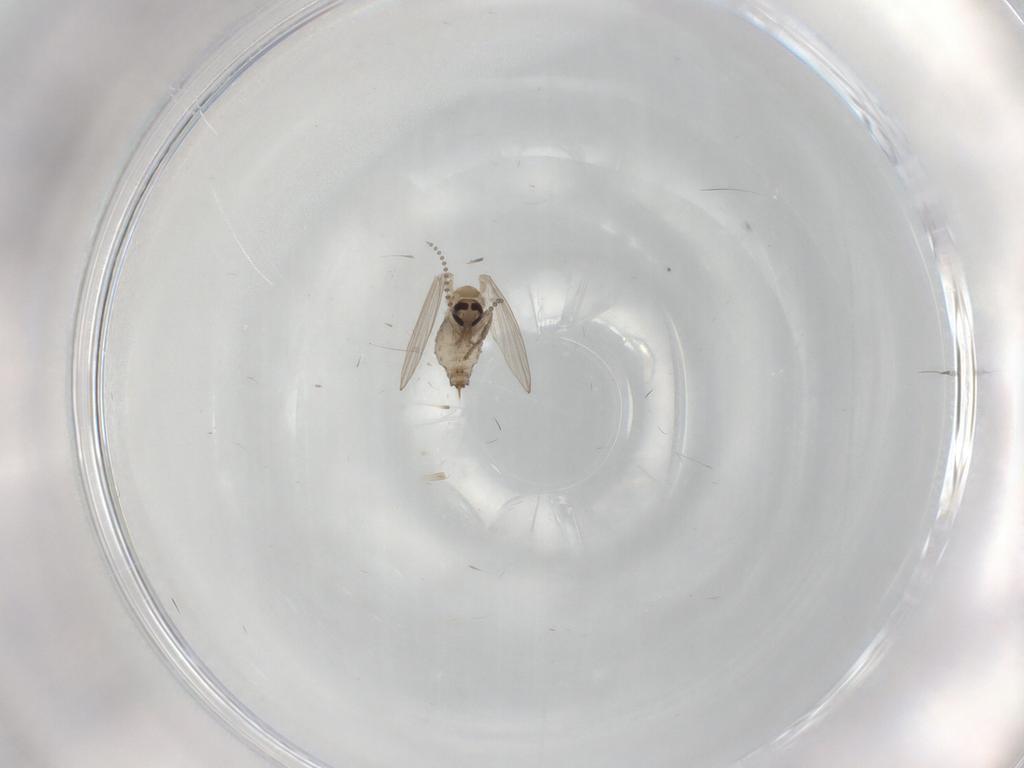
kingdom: Animalia
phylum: Arthropoda
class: Insecta
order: Diptera
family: Psychodidae
